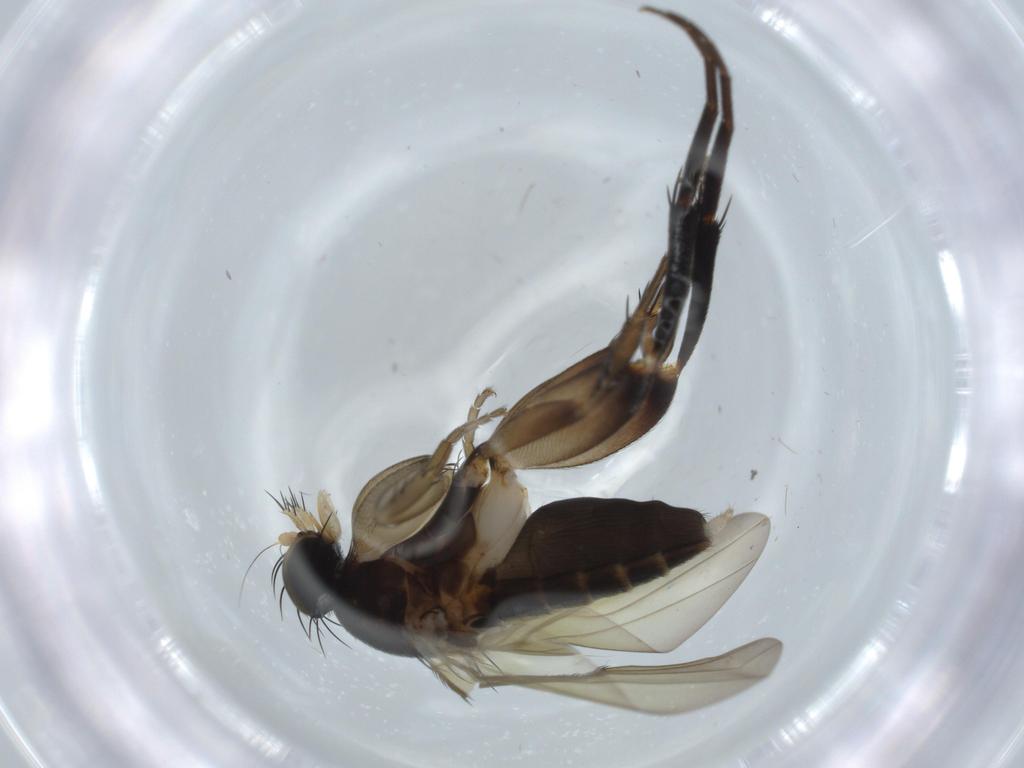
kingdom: Animalia
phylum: Arthropoda
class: Insecta
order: Diptera
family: Phoridae
